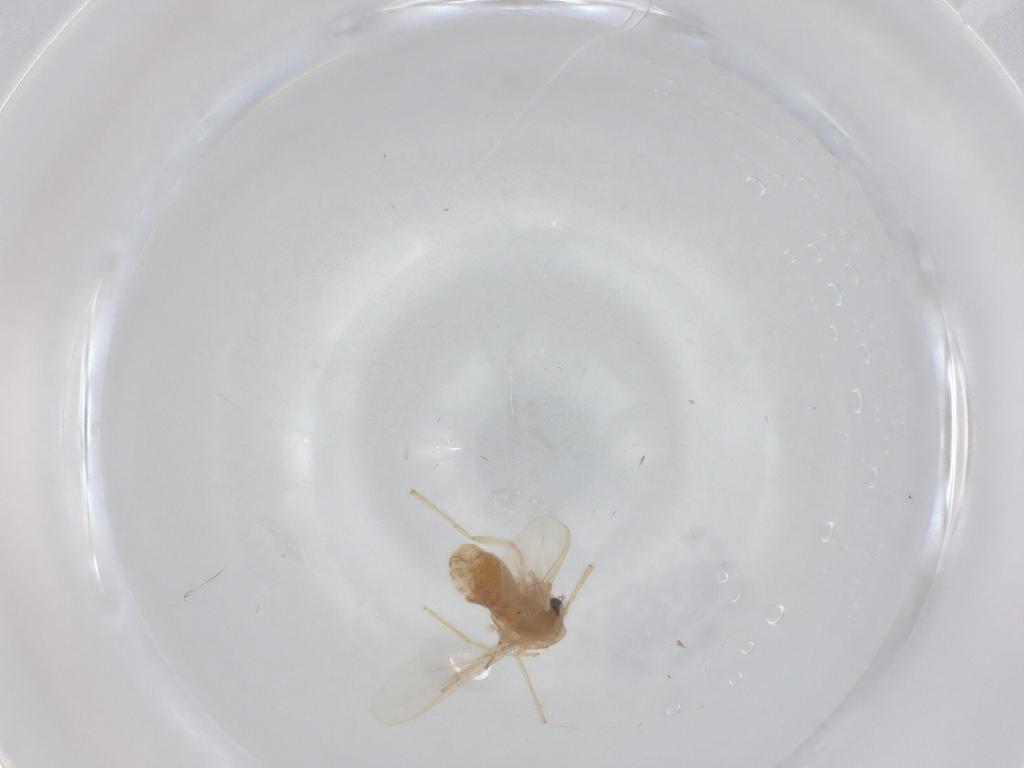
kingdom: Animalia
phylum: Arthropoda
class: Insecta
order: Diptera
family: Chironomidae
